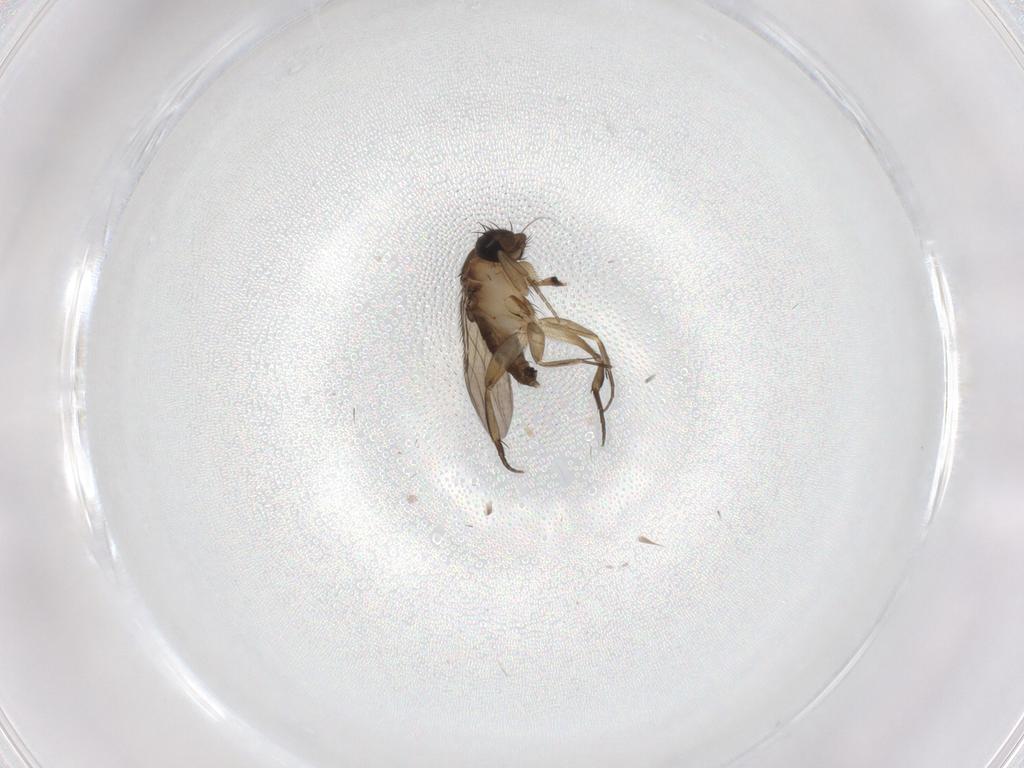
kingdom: Animalia
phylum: Arthropoda
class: Insecta
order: Diptera
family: Phoridae
